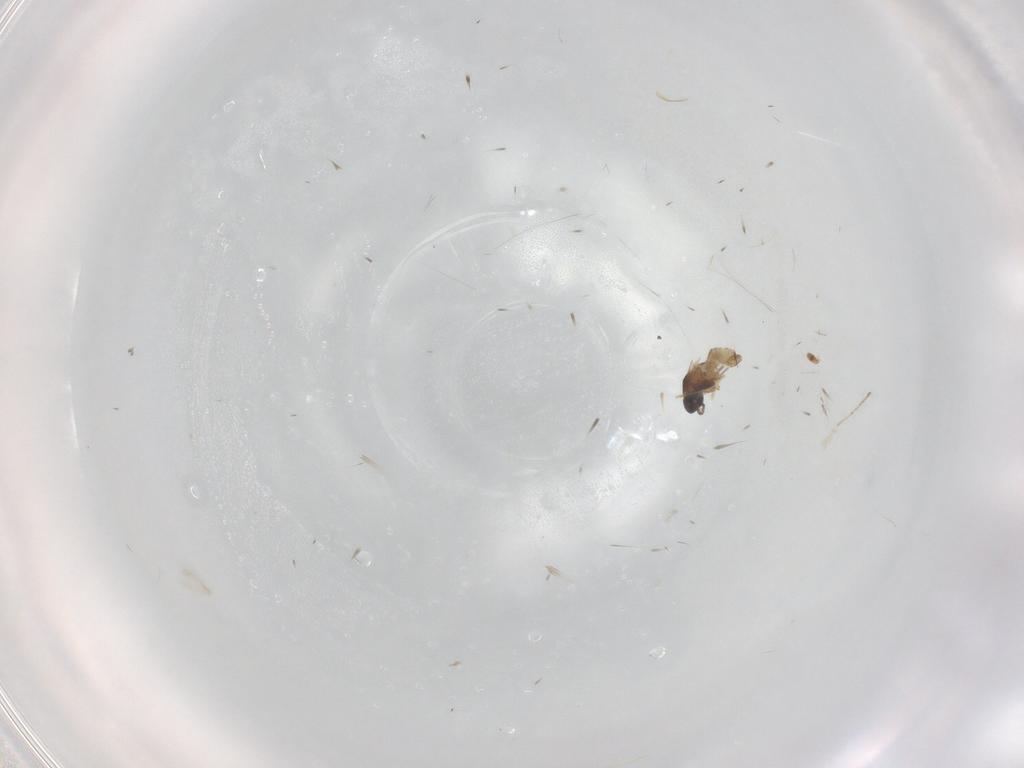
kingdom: Animalia
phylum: Arthropoda
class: Insecta
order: Diptera
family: Cecidomyiidae
